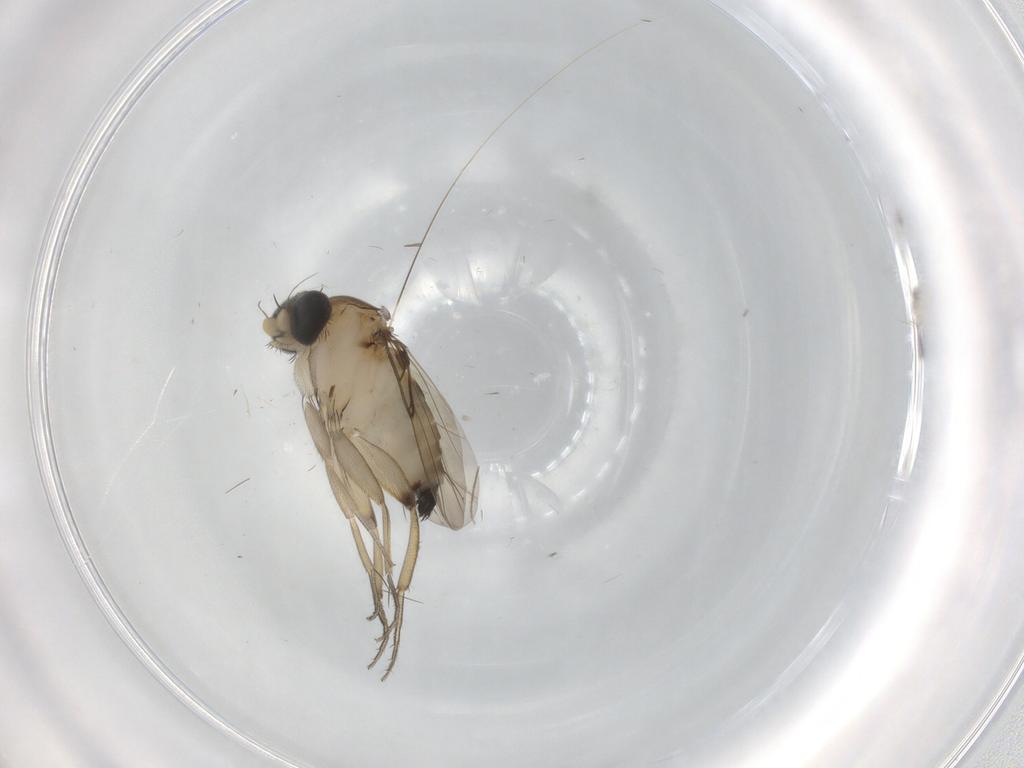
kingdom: Animalia
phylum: Arthropoda
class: Insecta
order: Diptera
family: Phoridae
